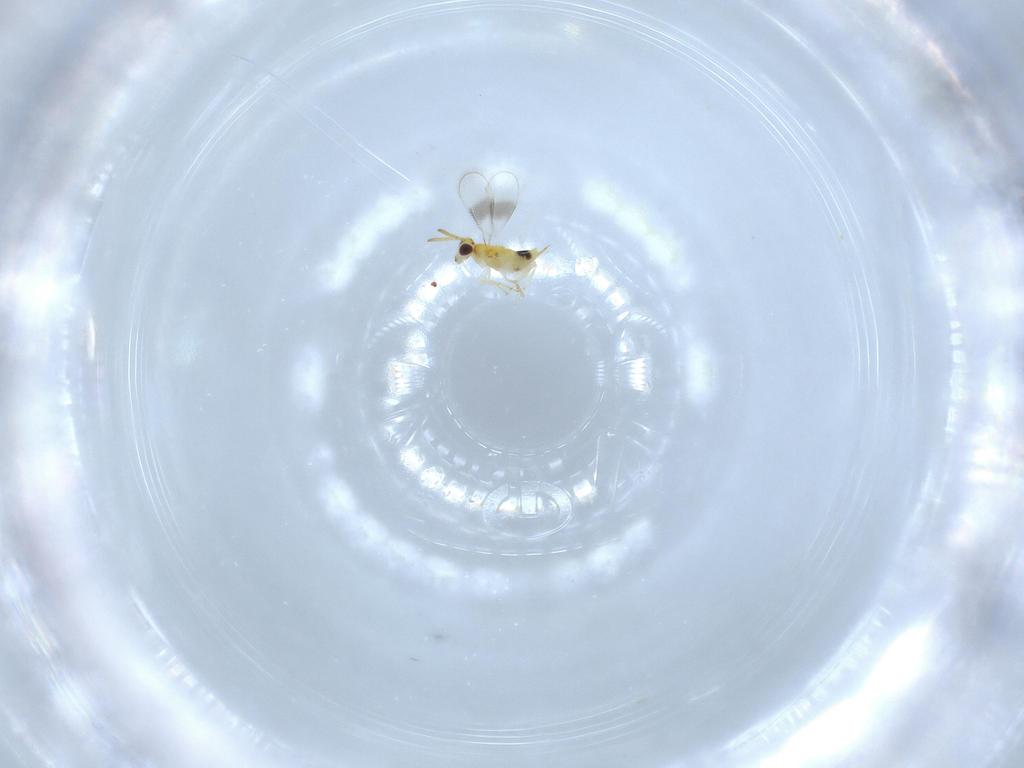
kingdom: Animalia
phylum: Arthropoda
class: Insecta
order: Hymenoptera
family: Aphelinidae
